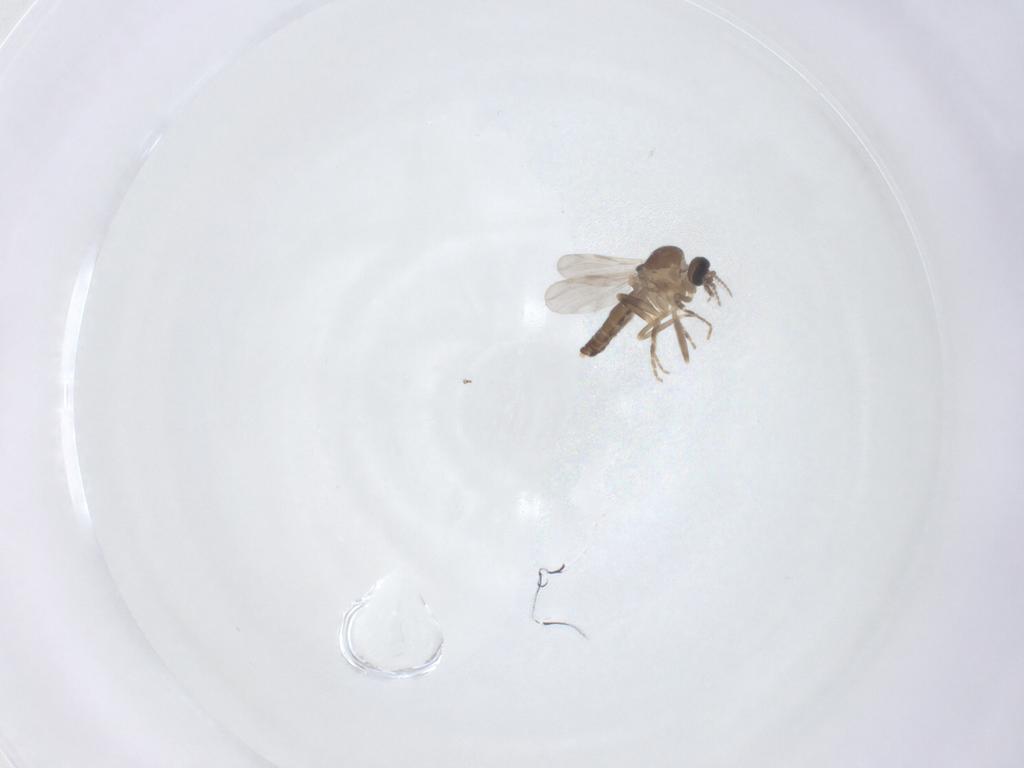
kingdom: Animalia
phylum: Arthropoda
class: Insecta
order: Diptera
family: Ceratopogonidae
